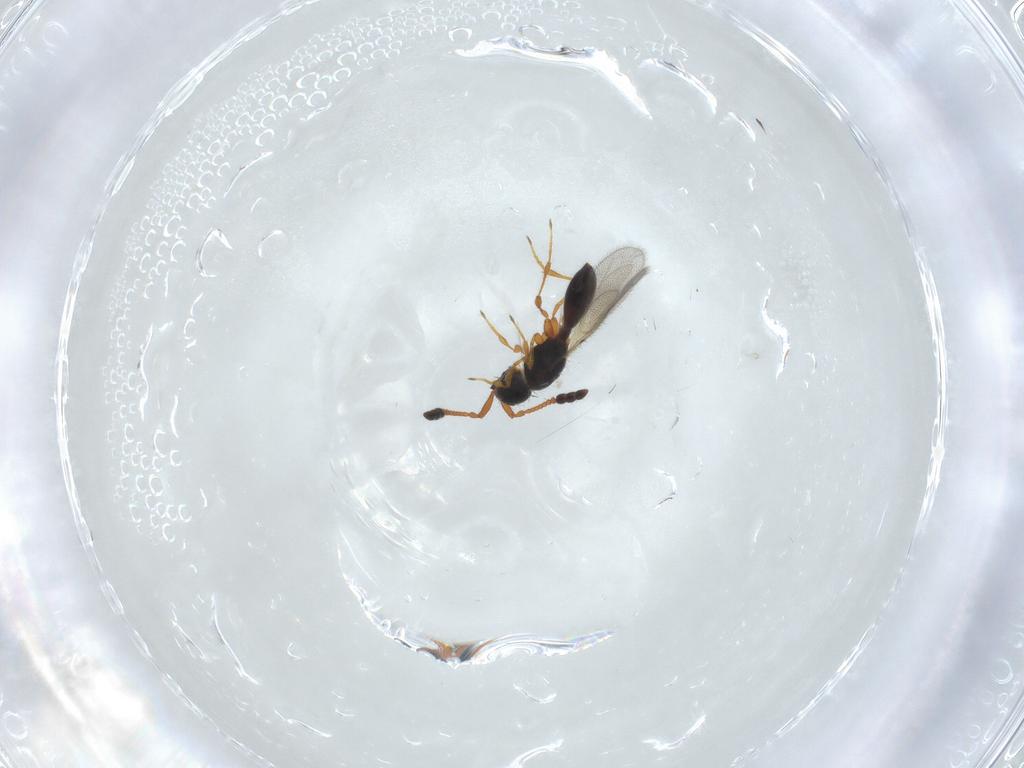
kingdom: Animalia
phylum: Arthropoda
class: Insecta
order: Hymenoptera
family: Diapriidae
